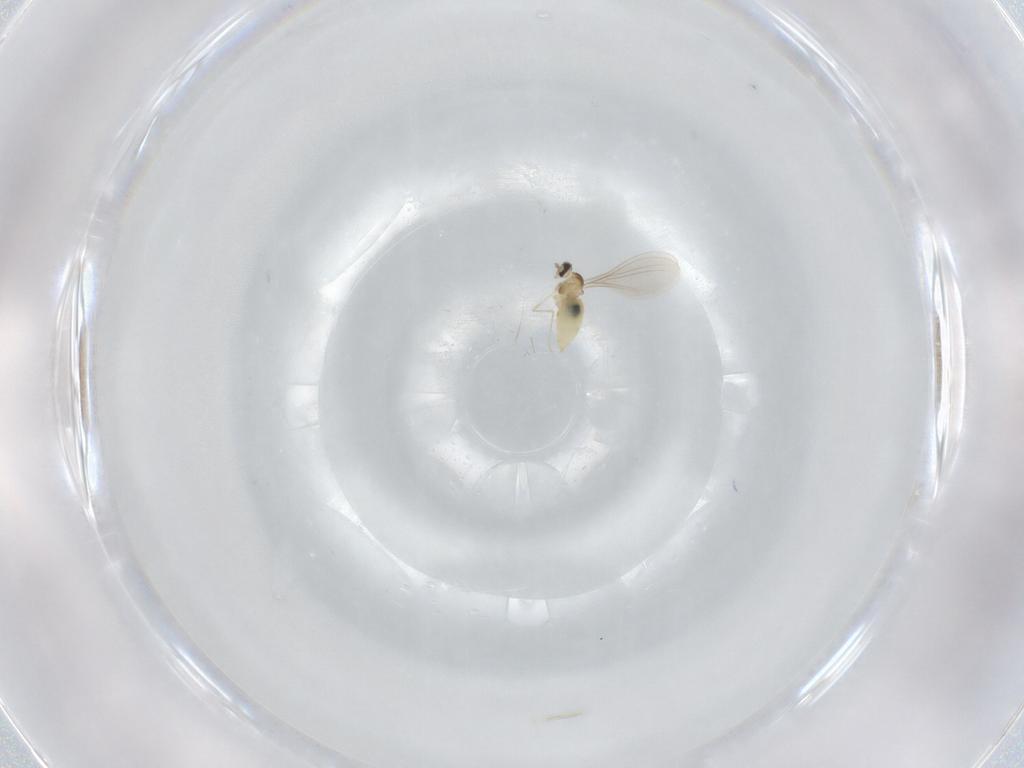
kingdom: Animalia
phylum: Arthropoda
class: Insecta
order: Diptera
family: Cecidomyiidae
